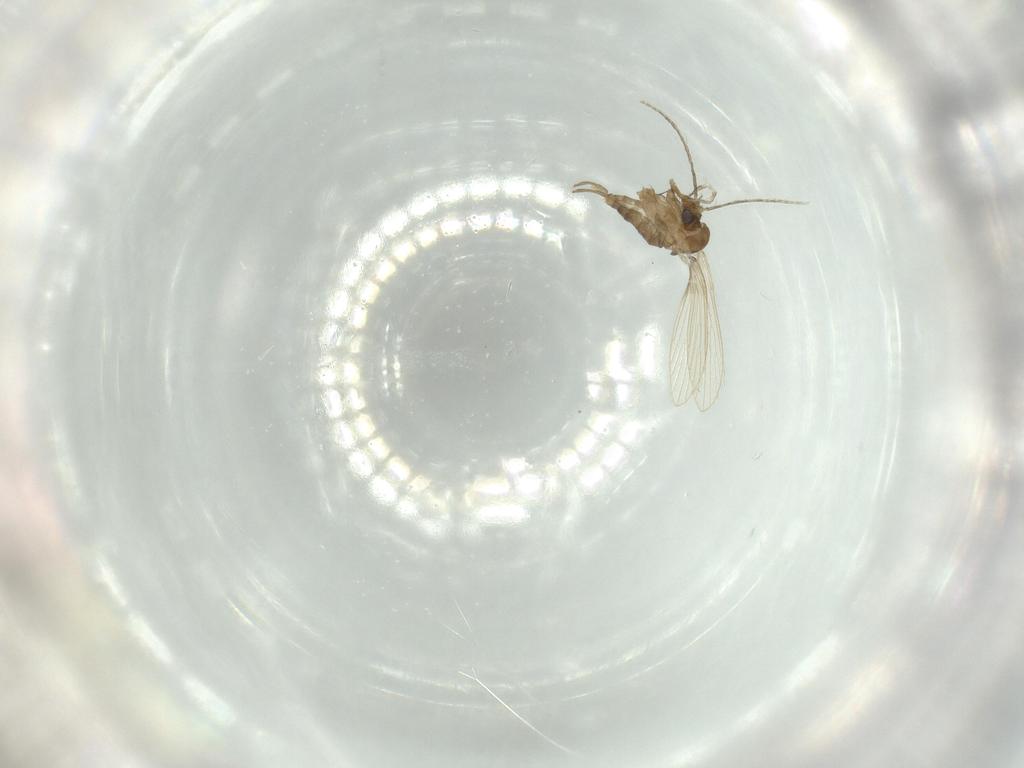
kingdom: Animalia
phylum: Arthropoda
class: Insecta
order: Diptera
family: Psychodidae
